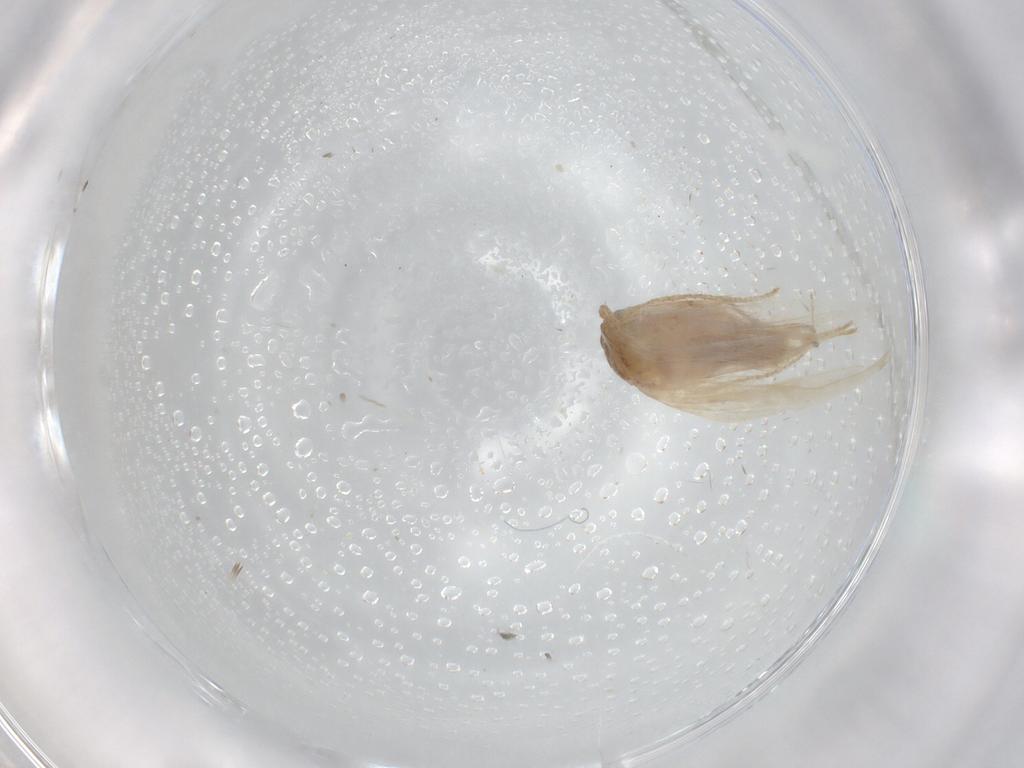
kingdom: Animalia
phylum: Arthropoda
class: Insecta
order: Lepidoptera
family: Gelechiidae
